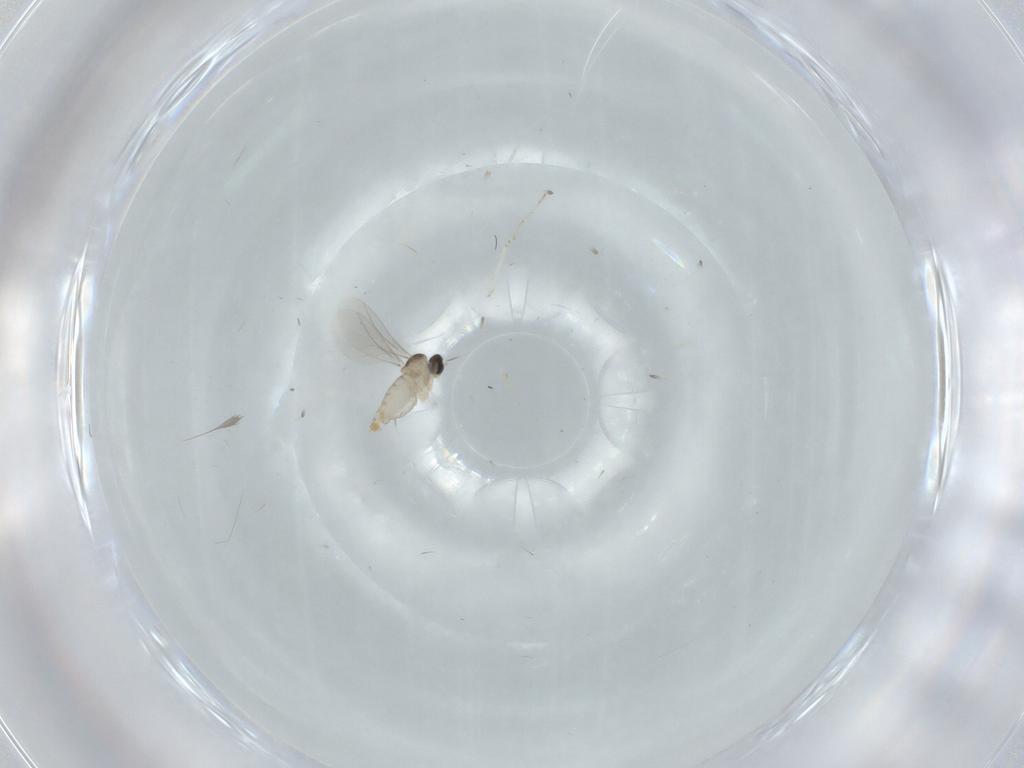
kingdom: Animalia
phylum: Arthropoda
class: Insecta
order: Diptera
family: Cecidomyiidae
